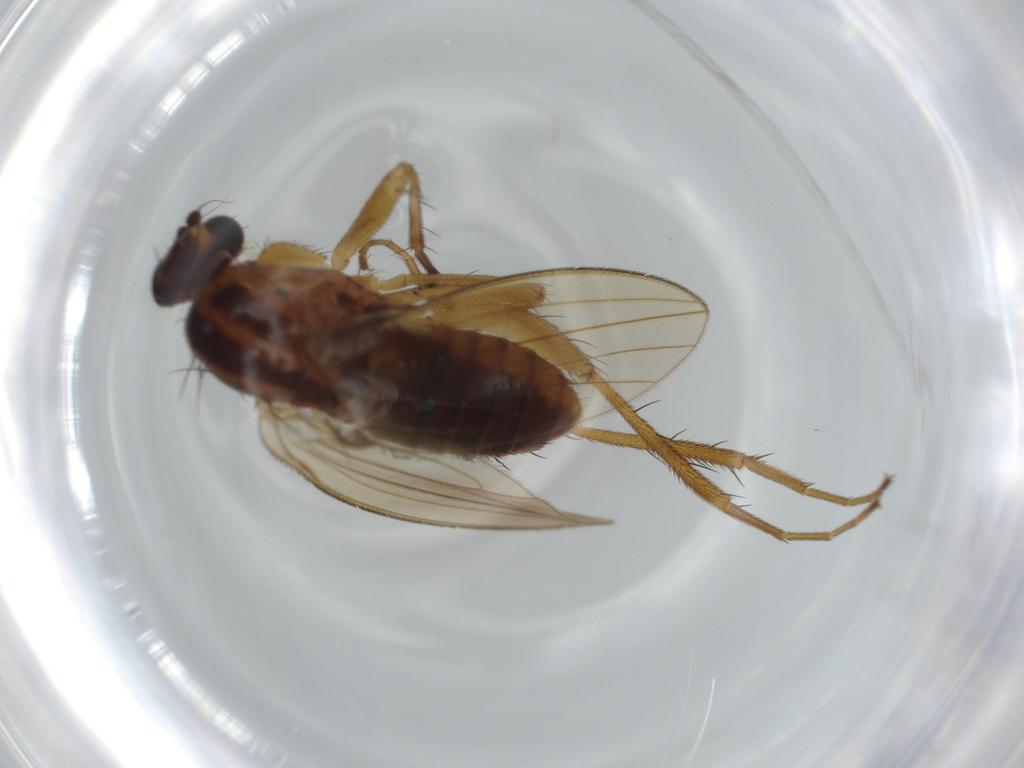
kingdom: Animalia
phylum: Arthropoda
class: Insecta
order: Diptera
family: Lonchopteridae
